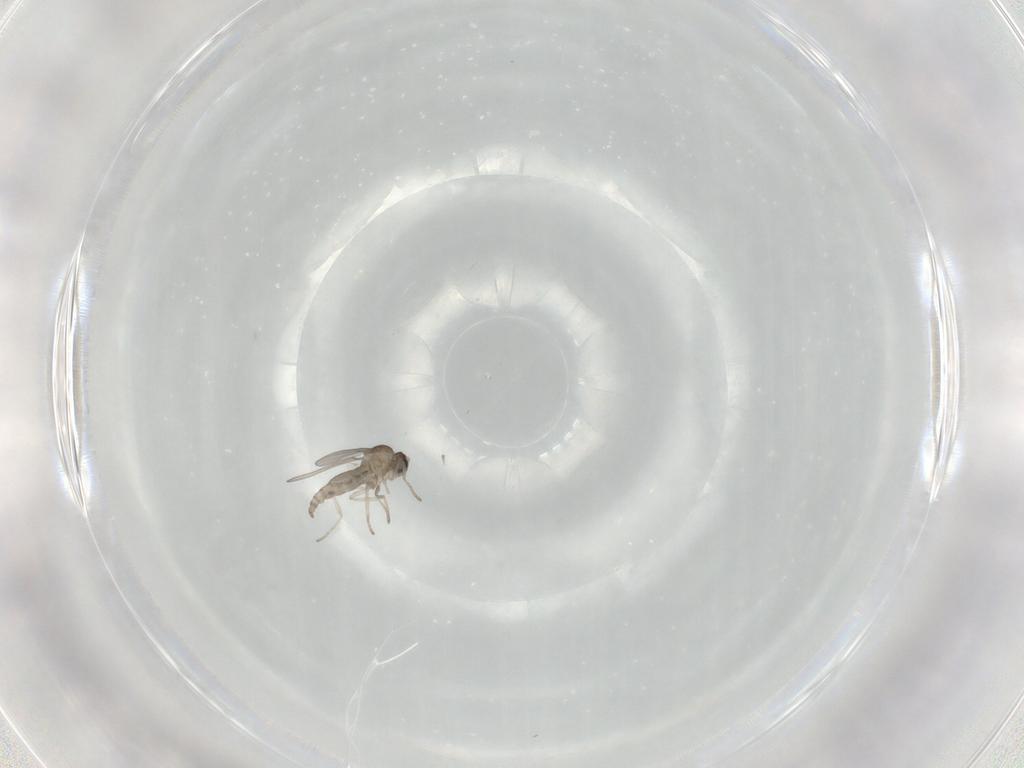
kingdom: Animalia
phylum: Arthropoda
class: Insecta
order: Diptera
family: Cecidomyiidae
